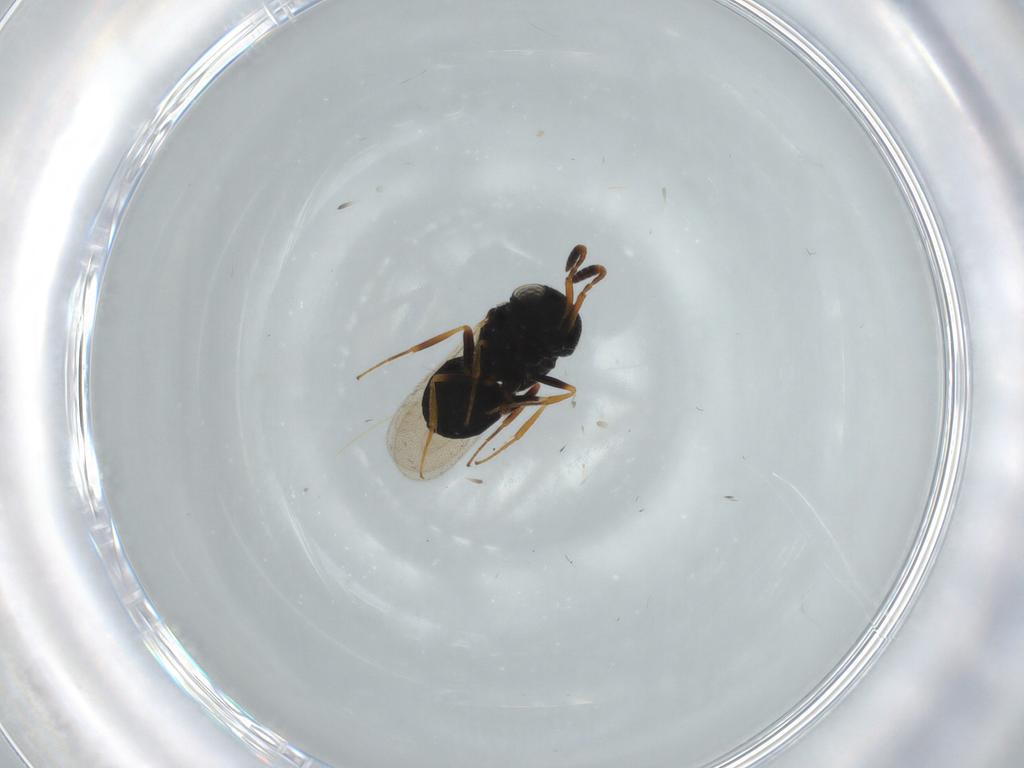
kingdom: Animalia
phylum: Arthropoda
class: Insecta
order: Hymenoptera
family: Scelionidae
